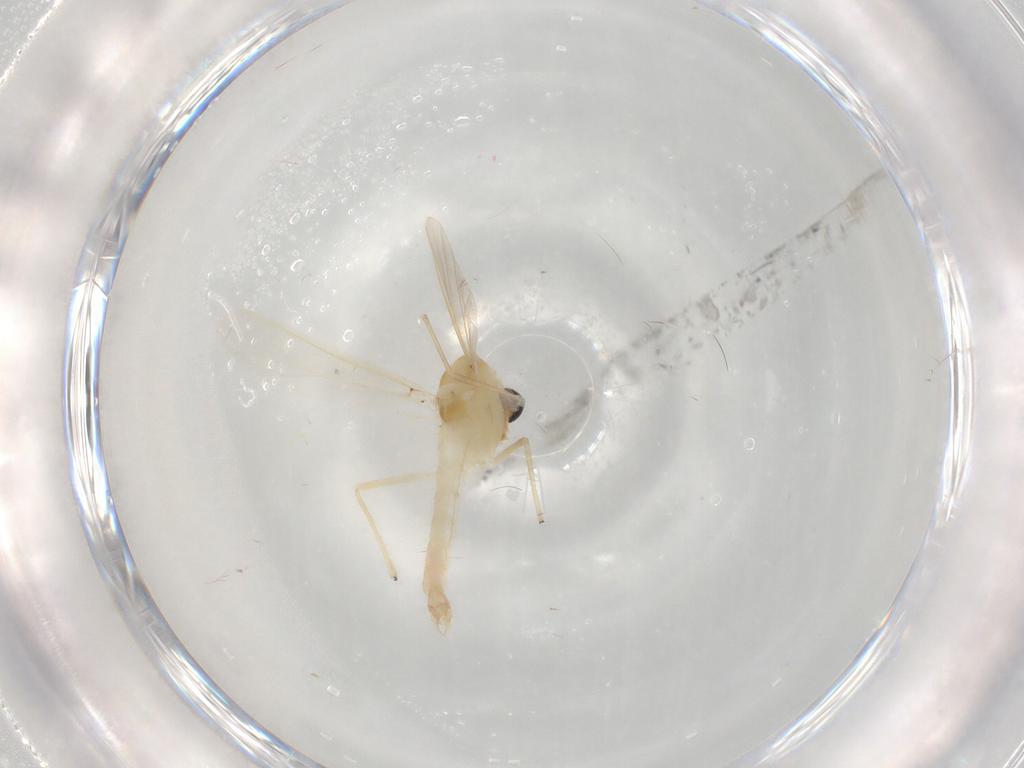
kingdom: Animalia
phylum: Arthropoda
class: Insecta
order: Diptera
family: Chironomidae
